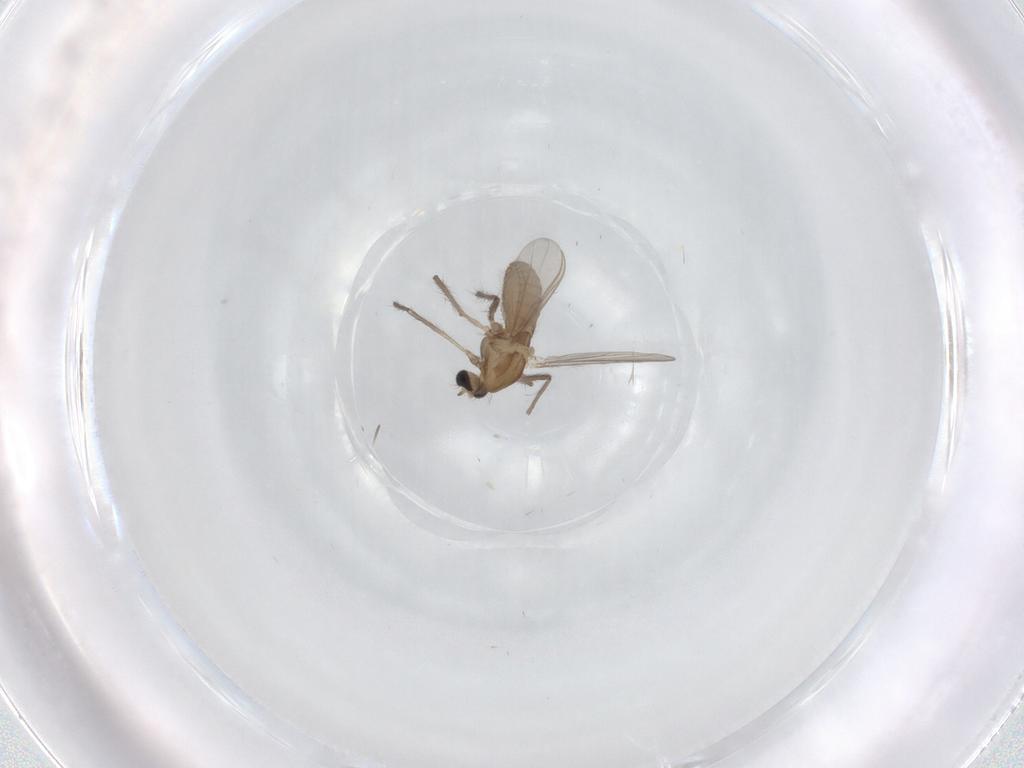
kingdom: Animalia
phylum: Arthropoda
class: Insecta
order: Diptera
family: Chironomidae
